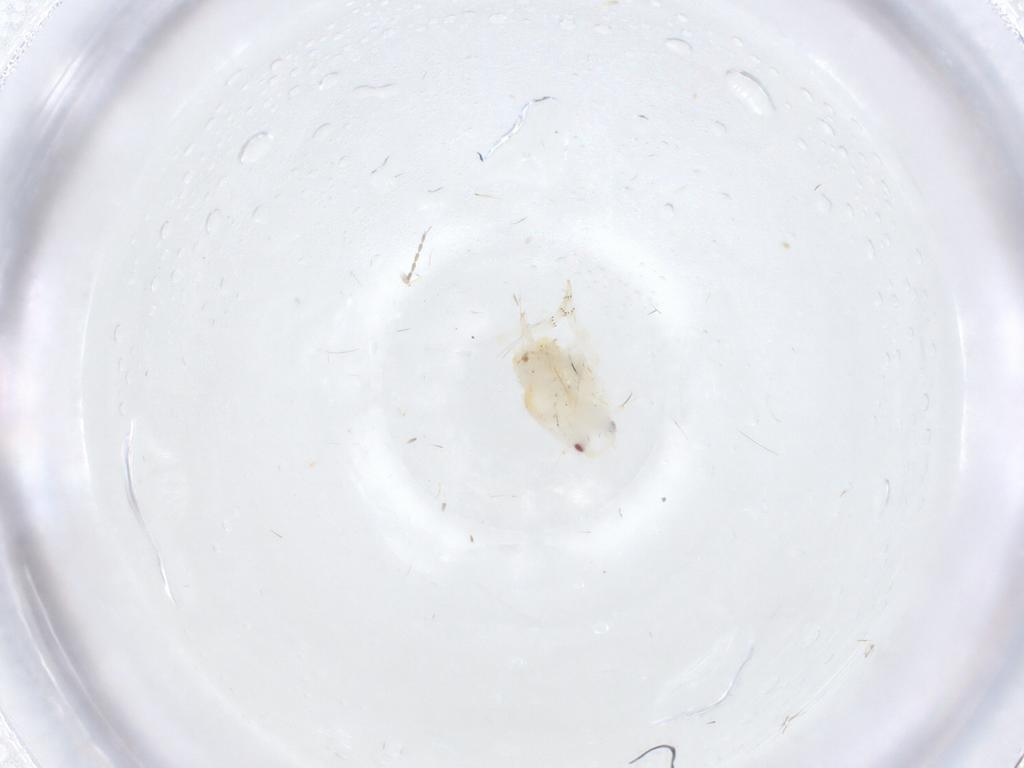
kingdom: Animalia
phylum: Arthropoda
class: Insecta
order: Hemiptera
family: Flatidae
